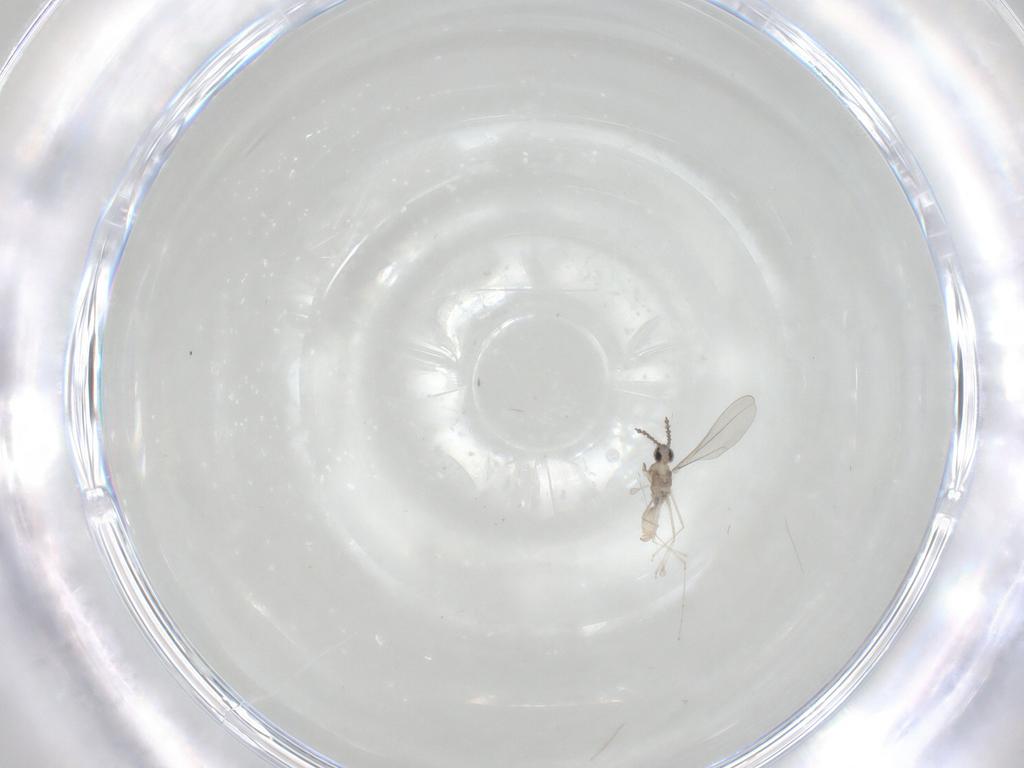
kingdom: Animalia
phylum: Arthropoda
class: Insecta
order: Diptera
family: Cecidomyiidae
